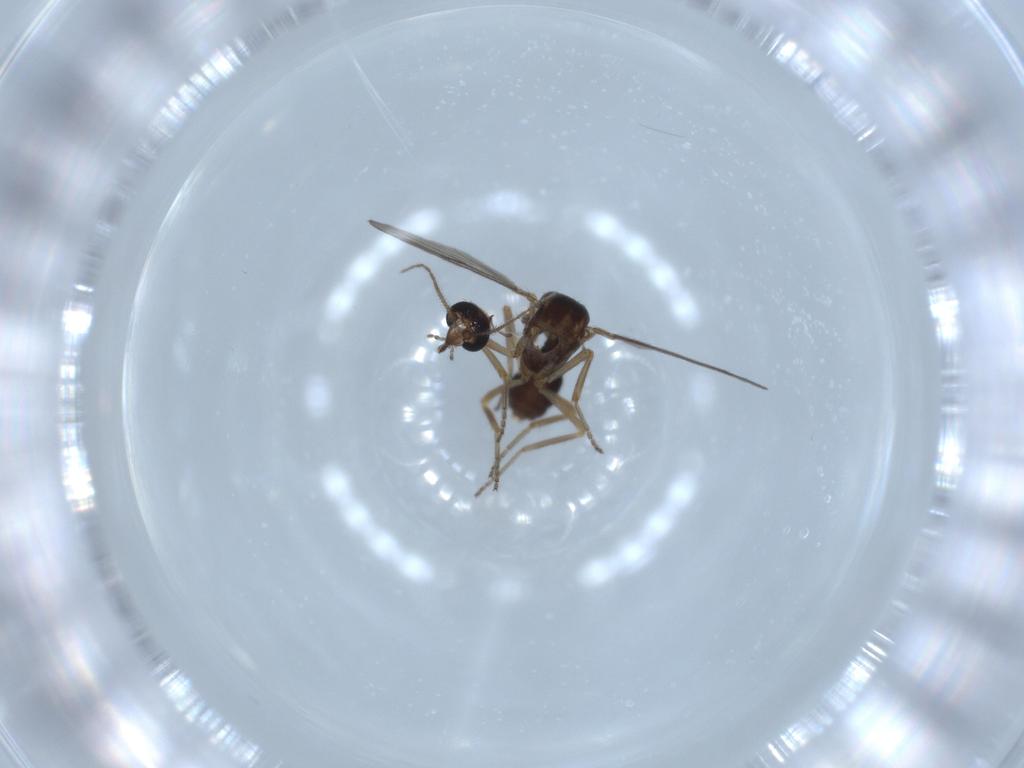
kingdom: Animalia
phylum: Arthropoda
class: Insecta
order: Diptera
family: Ceratopogonidae
